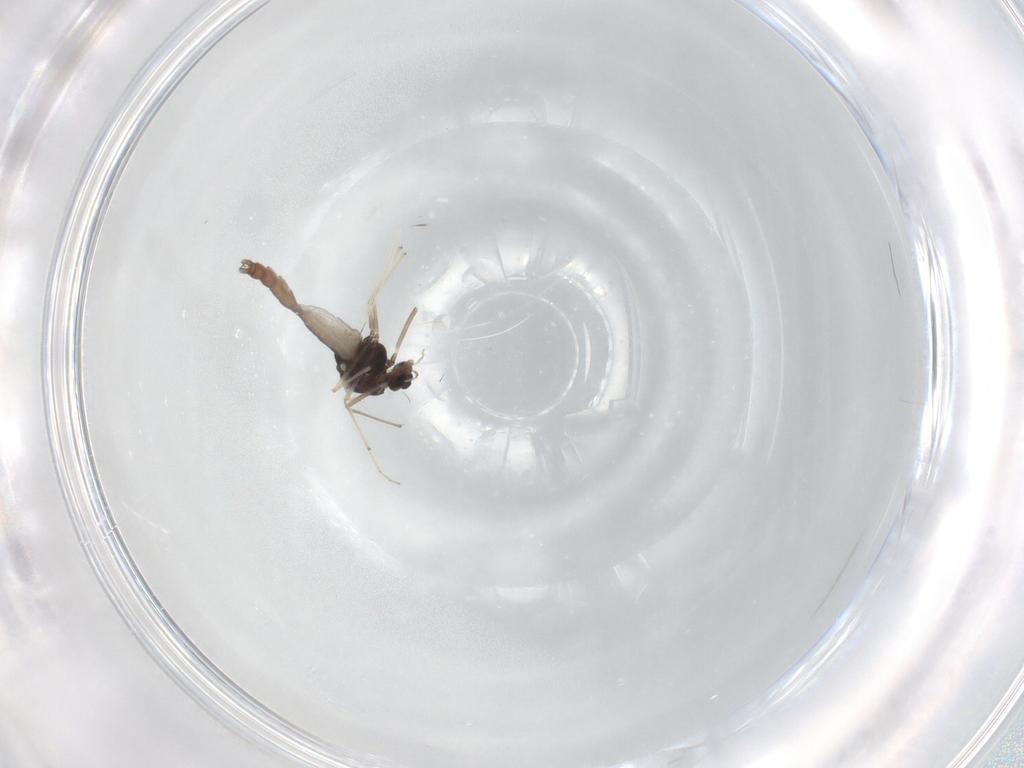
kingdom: Animalia
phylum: Arthropoda
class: Insecta
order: Diptera
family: Chironomidae
